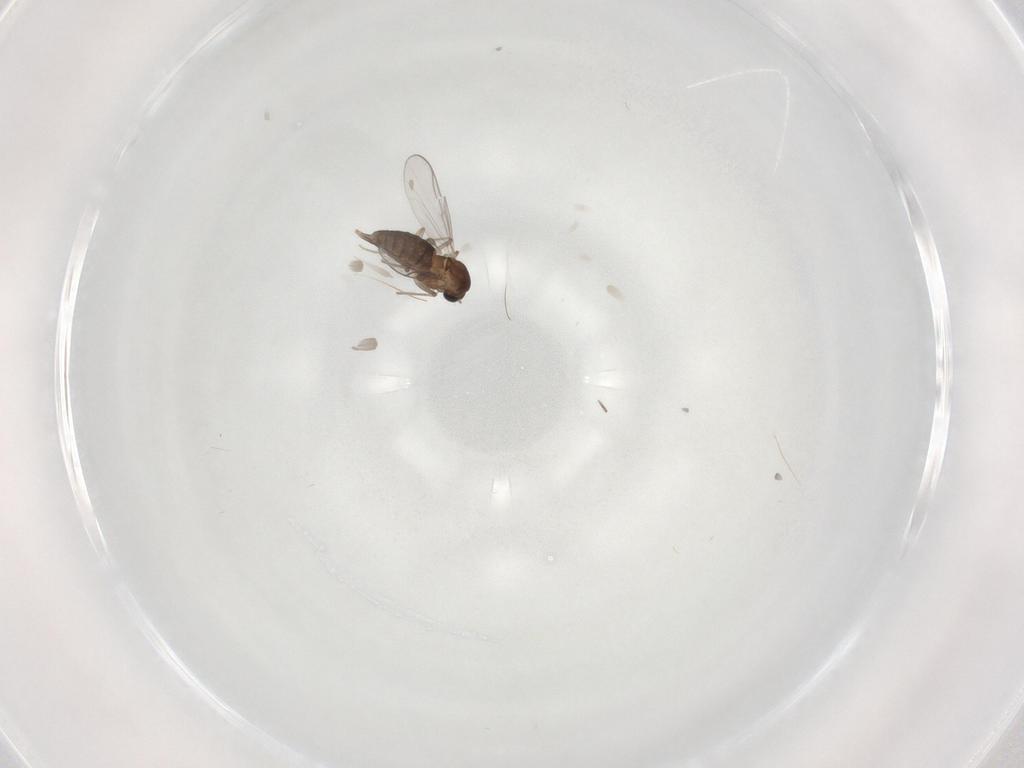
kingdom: Animalia
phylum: Arthropoda
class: Insecta
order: Diptera
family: Chironomidae
